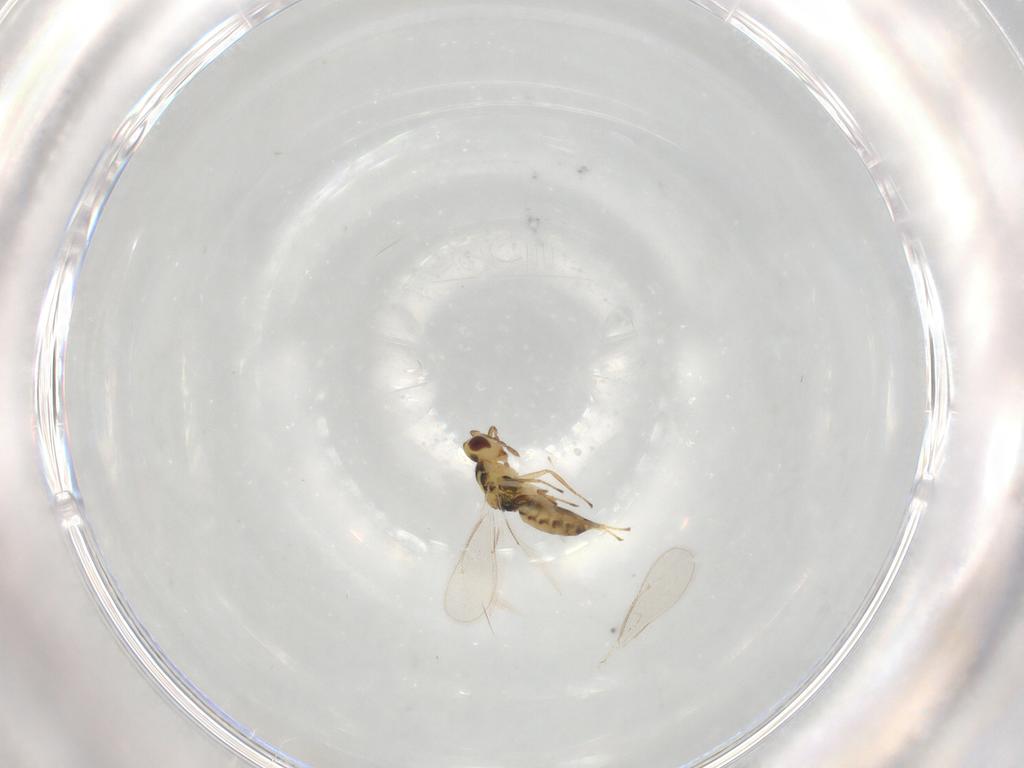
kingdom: Animalia
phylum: Arthropoda
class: Insecta
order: Hymenoptera
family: Eulophidae
